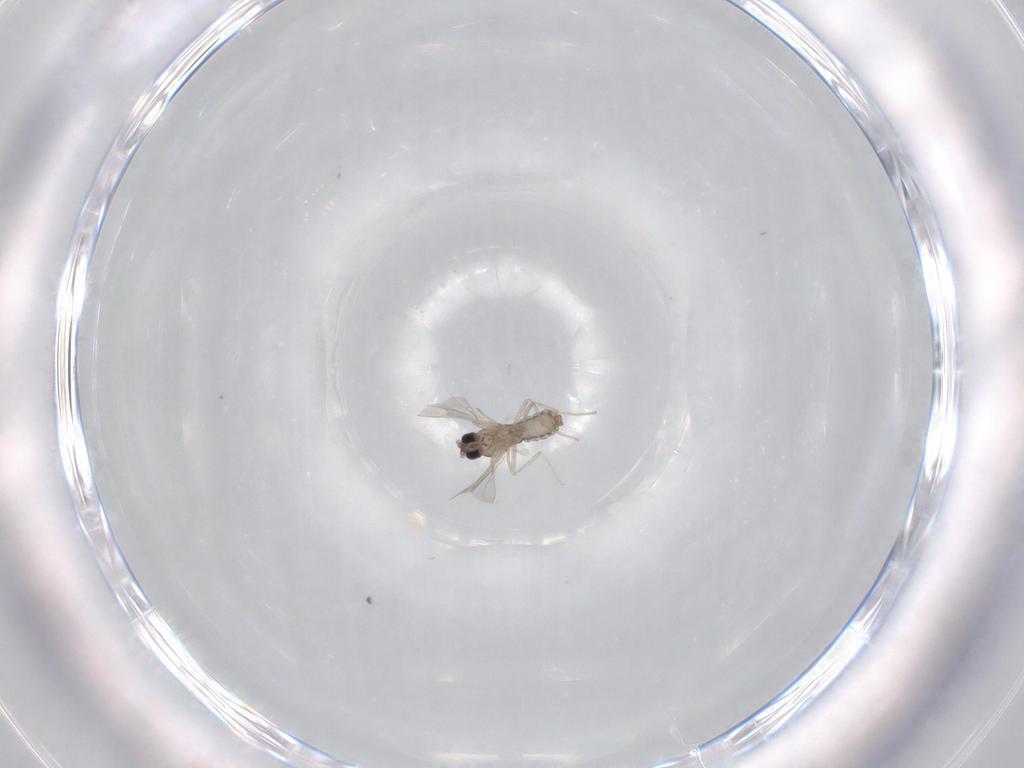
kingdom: Animalia
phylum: Arthropoda
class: Insecta
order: Diptera
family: Cecidomyiidae
